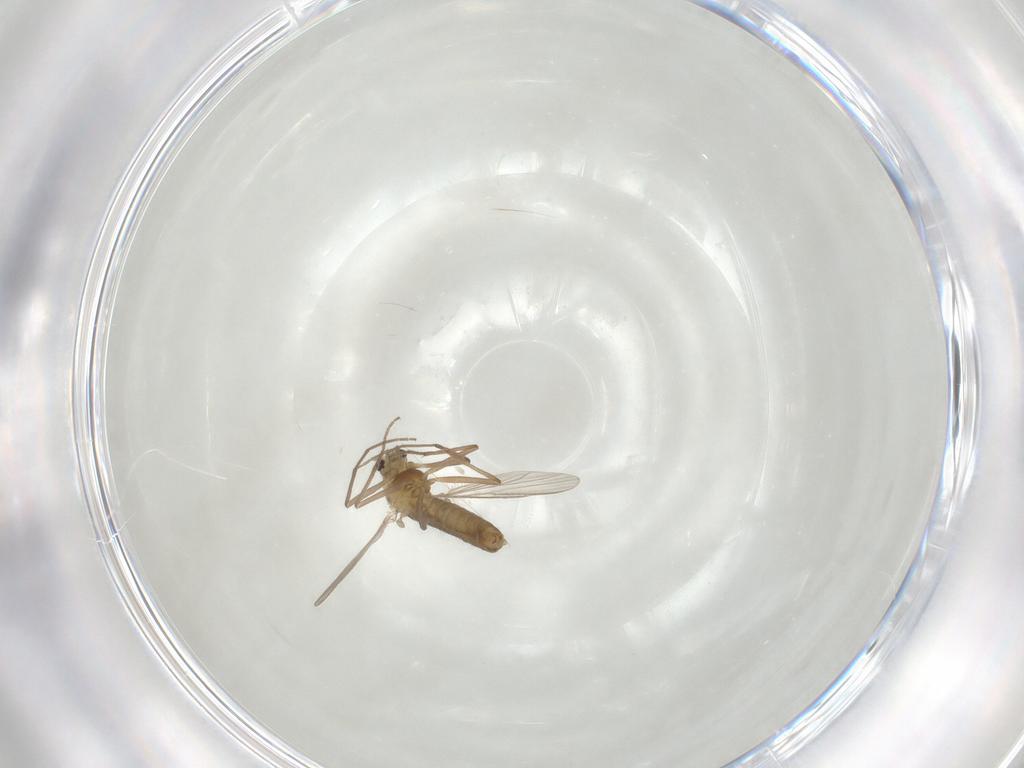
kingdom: Animalia
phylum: Arthropoda
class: Insecta
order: Diptera
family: Chironomidae
